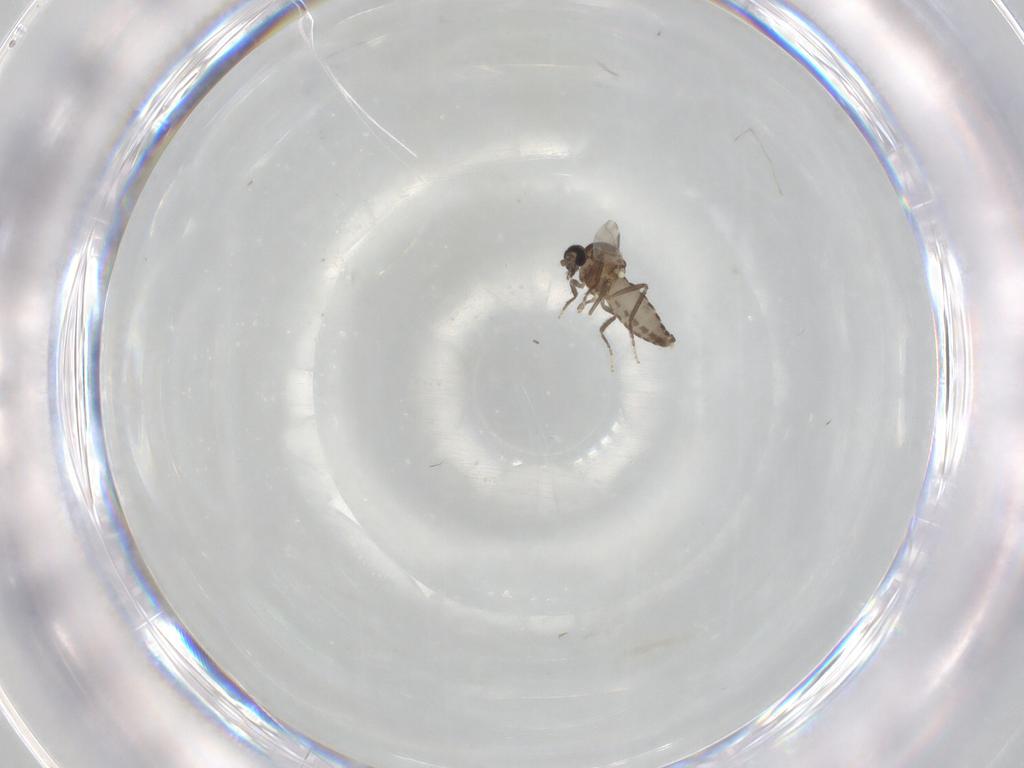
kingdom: Animalia
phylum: Arthropoda
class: Insecta
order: Diptera
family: Ceratopogonidae
